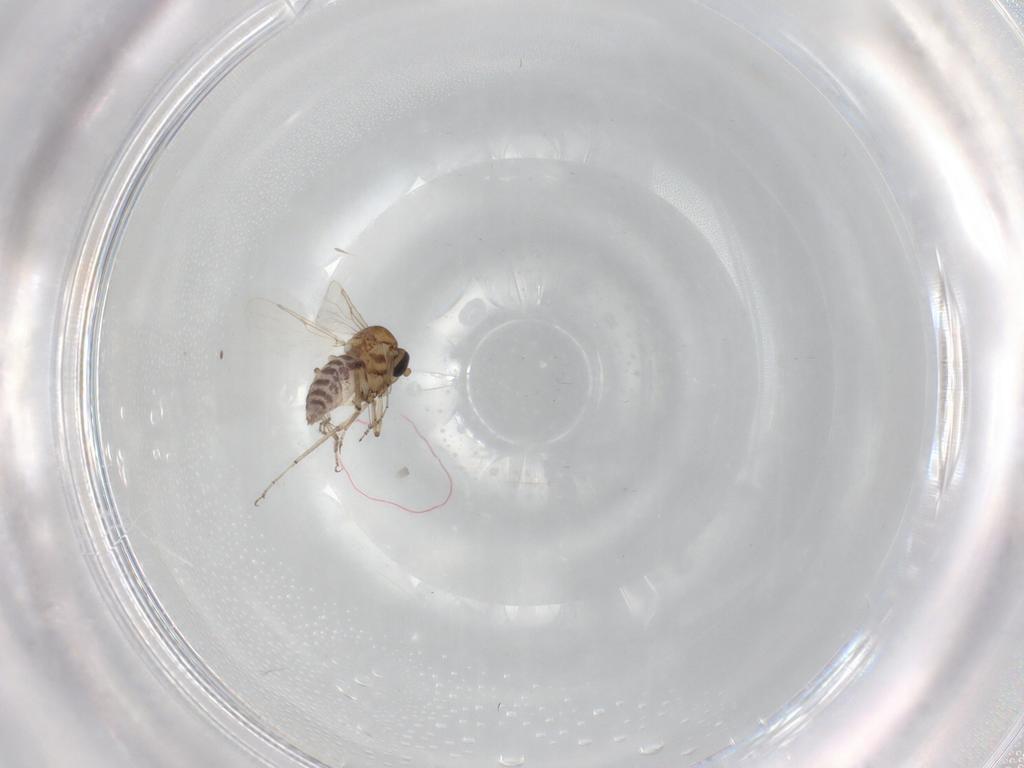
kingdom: Animalia
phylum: Arthropoda
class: Insecta
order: Diptera
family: Ceratopogonidae
